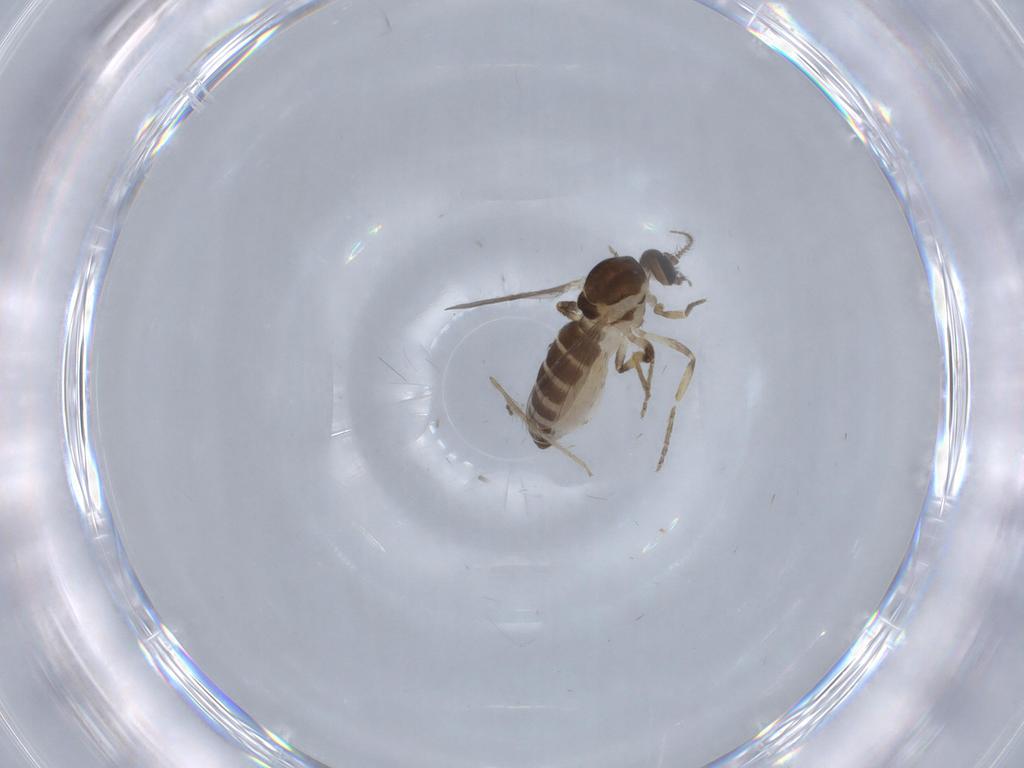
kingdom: Animalia
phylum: Arthropoda
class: Insecta
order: Diptera
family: Ceratopogonidae
